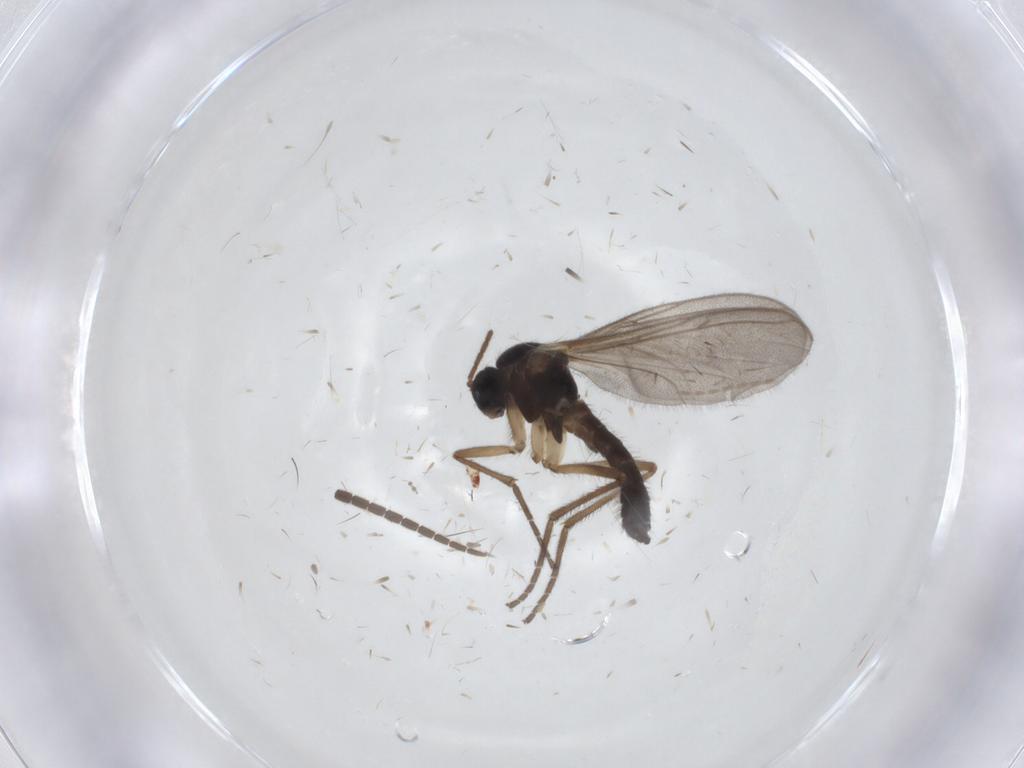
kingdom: Animalia
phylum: Arthropoda
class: Insecta
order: Diptera
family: Mycetophilidae
